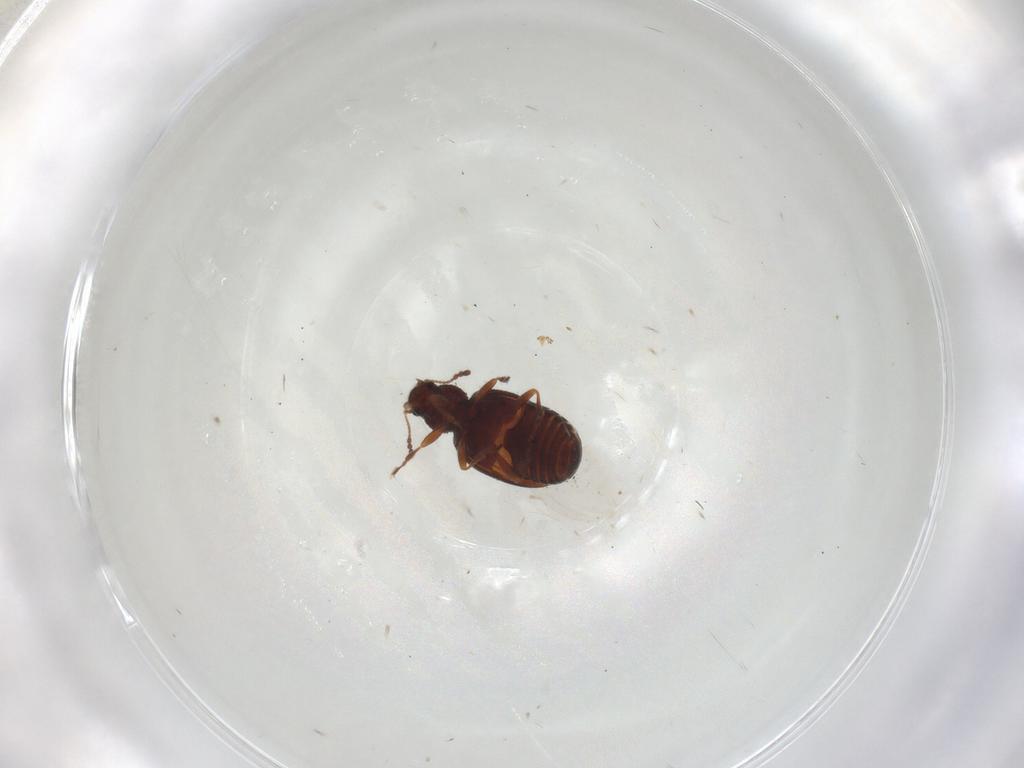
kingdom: Animalia
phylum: Arthropoda
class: Insecta
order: Coleoptera
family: Latridiidae
